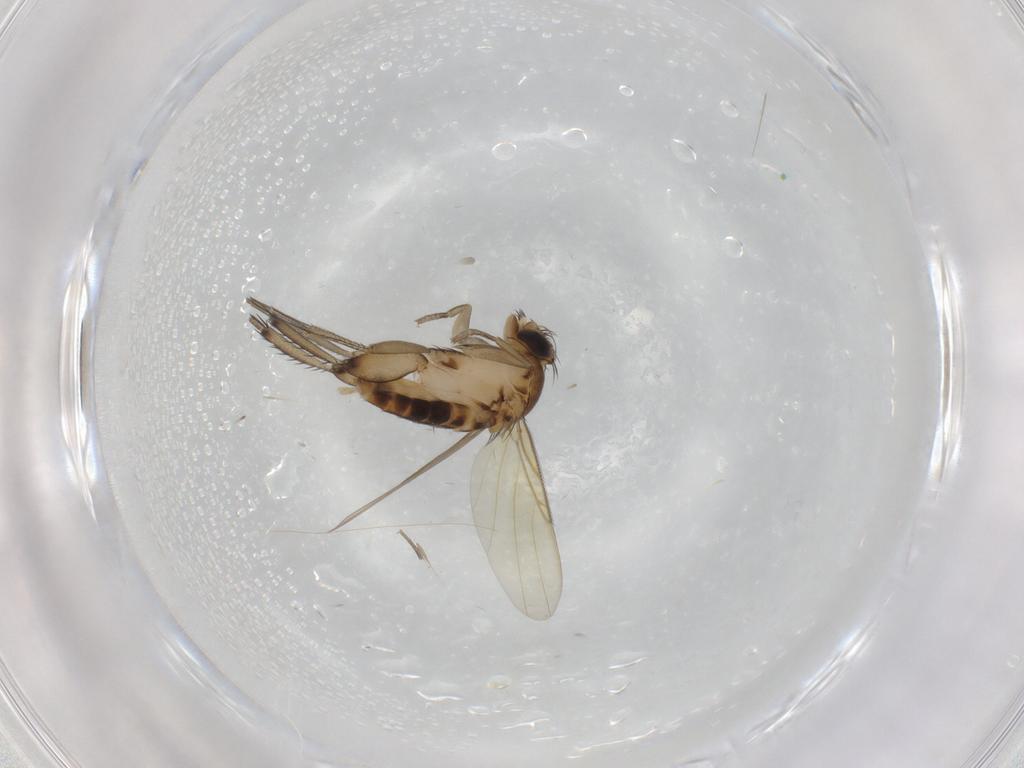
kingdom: Animalia
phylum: Arthropoda
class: Insecta
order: Diptera
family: Phoridae
